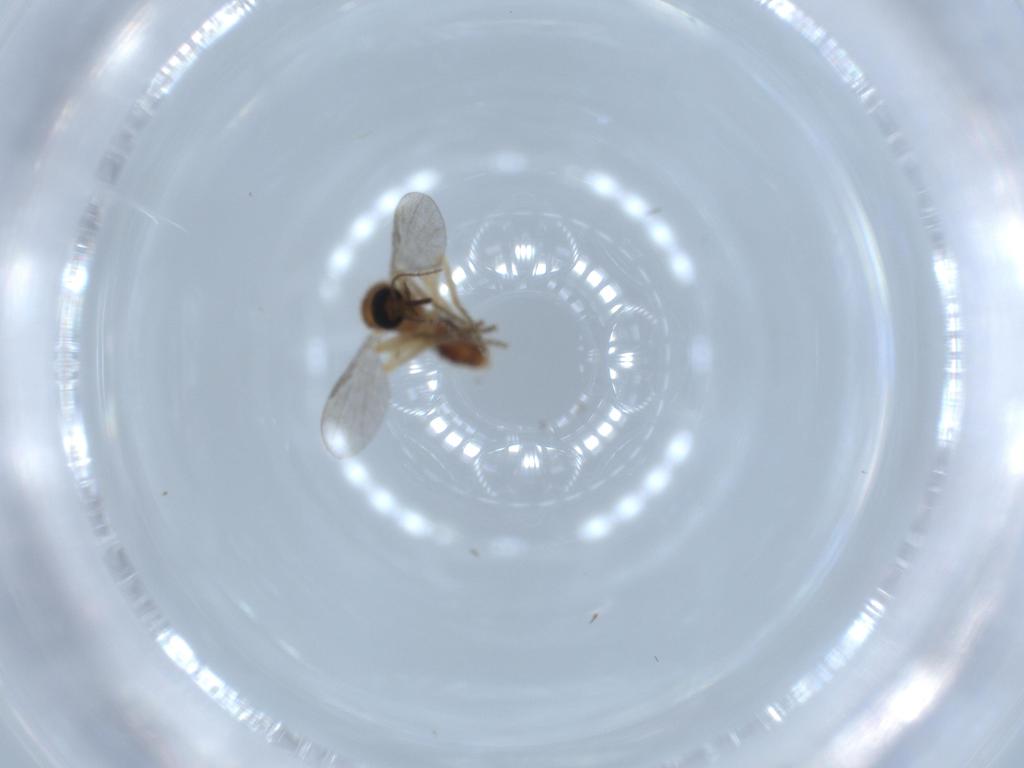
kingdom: Animalia
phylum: Arthropoda
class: Insecta
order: Diptera
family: Ceratopogonidae
